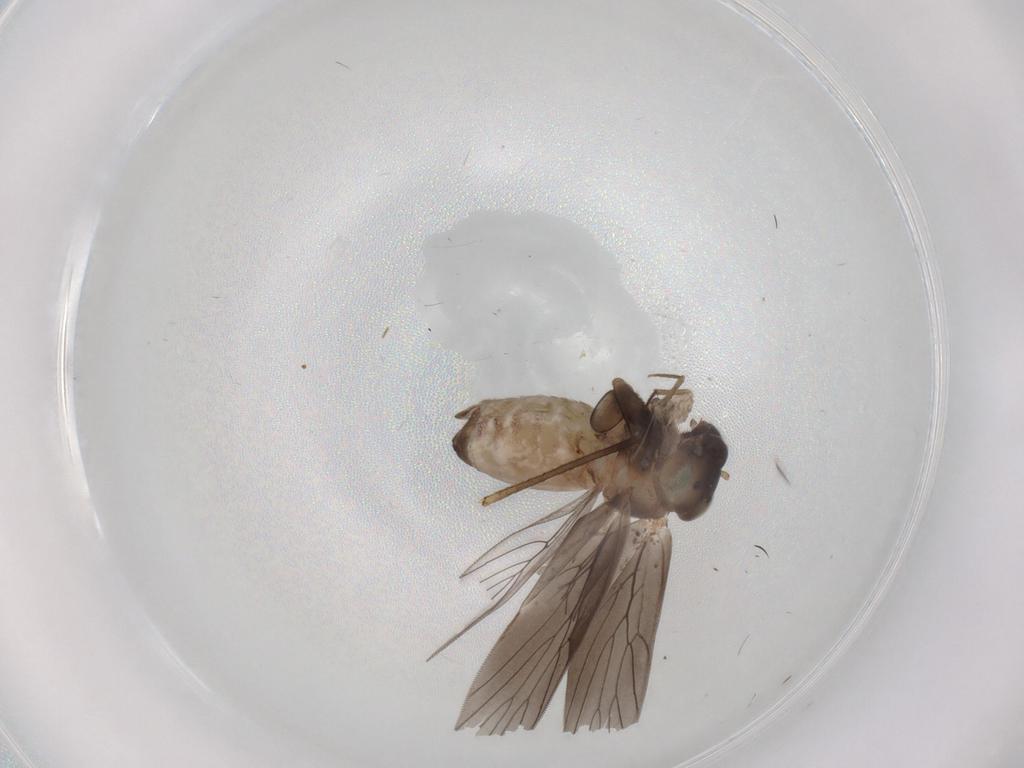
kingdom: Animalia
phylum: Arthropoda
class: Insecta
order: Psocodea
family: Lepidopsocidae
